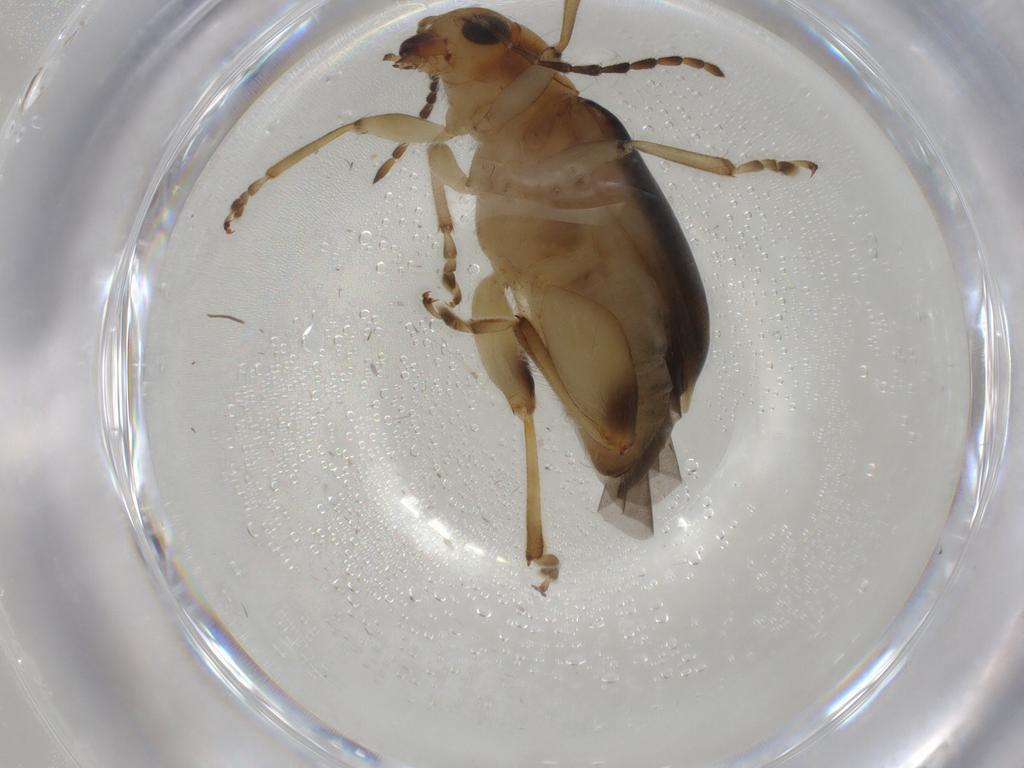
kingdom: Animalia
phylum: Arthropoda
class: Insecta
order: Coleoptera
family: Chrysomelidae
